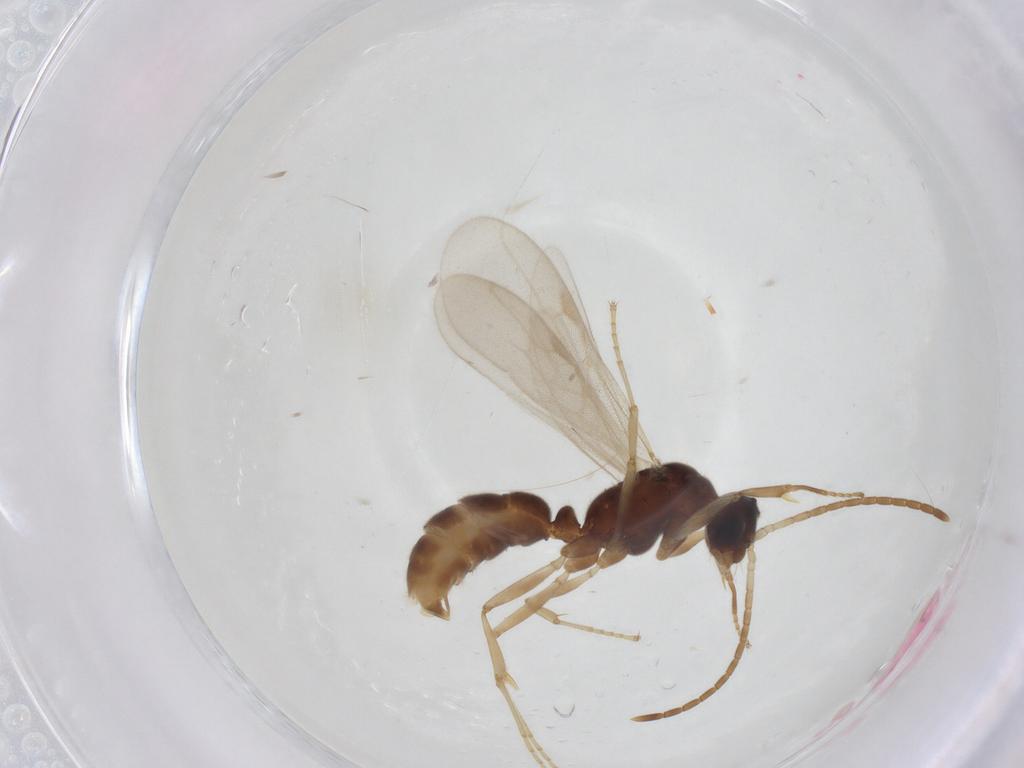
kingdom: Animalia
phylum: Arthropoda
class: Insecta
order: Hymenoptera
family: Formicidae
